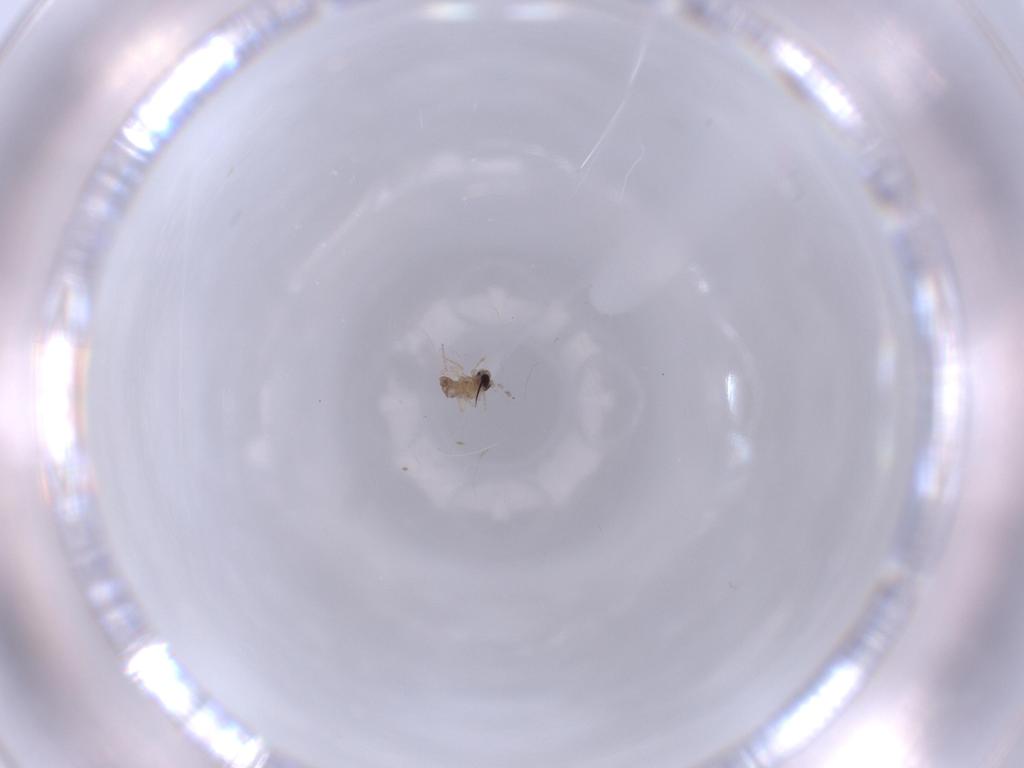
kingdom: Animalia
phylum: Arthropoda
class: Insecta
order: Diptera
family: Cecidomyiidae
